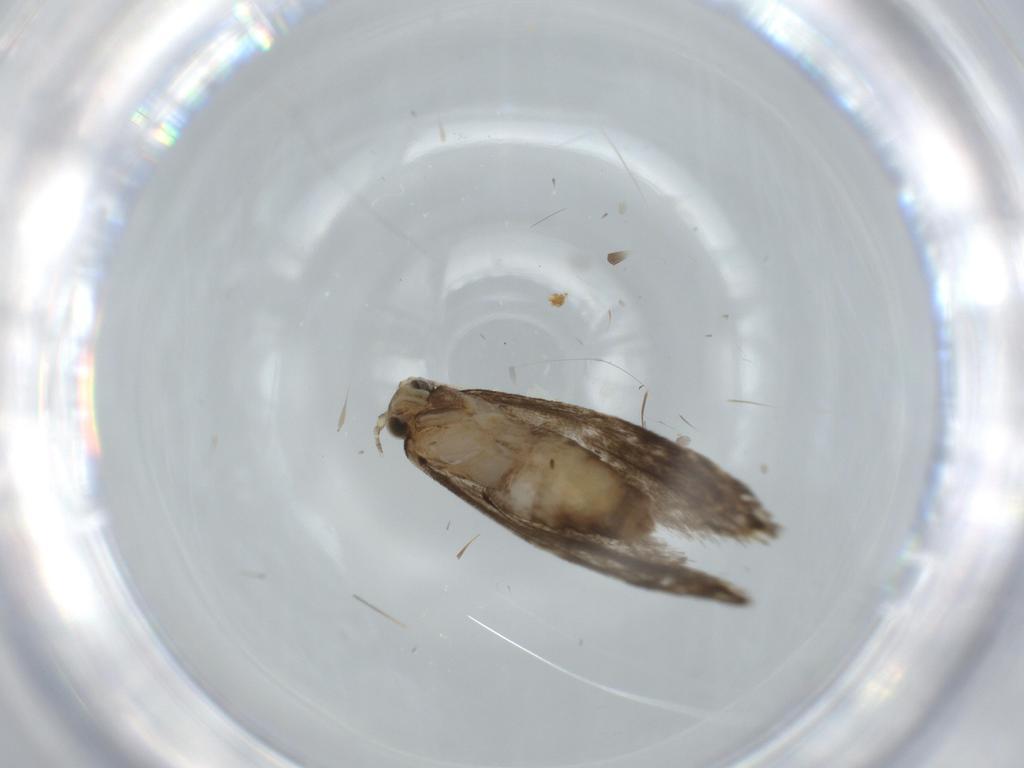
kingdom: Animalia
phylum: Arthropoda
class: Insecta
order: Lepidoptera
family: Tineidae
